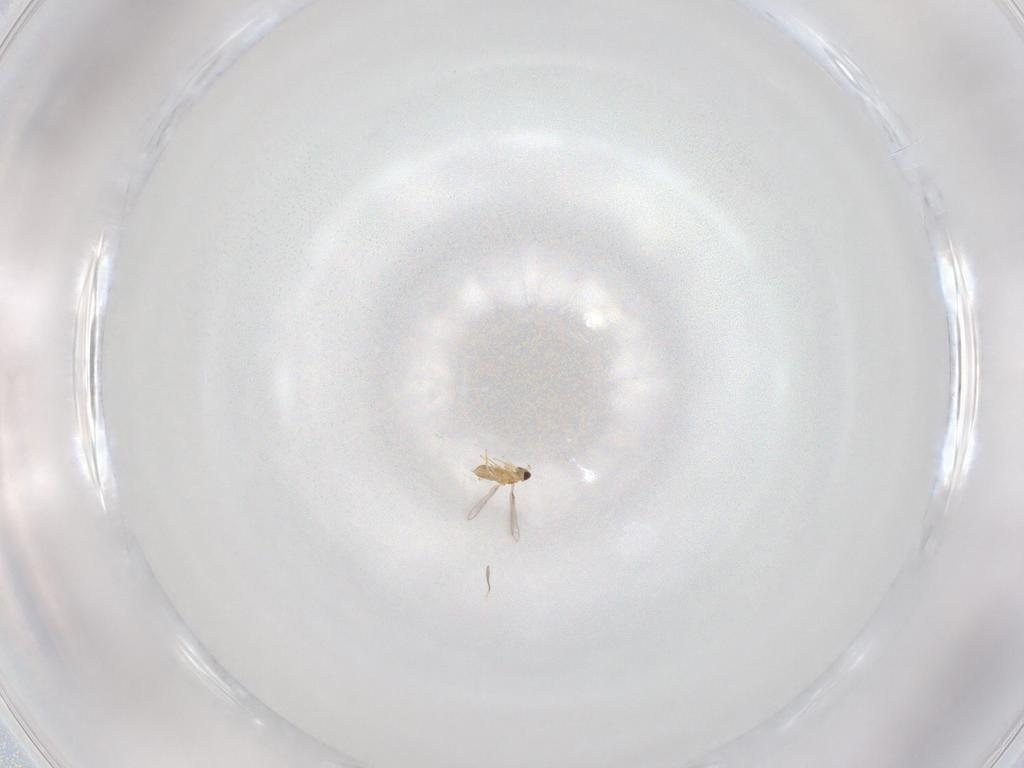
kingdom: Animalia
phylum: Arthropoda
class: Insecta
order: Hymenoptera
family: Mymaridae
